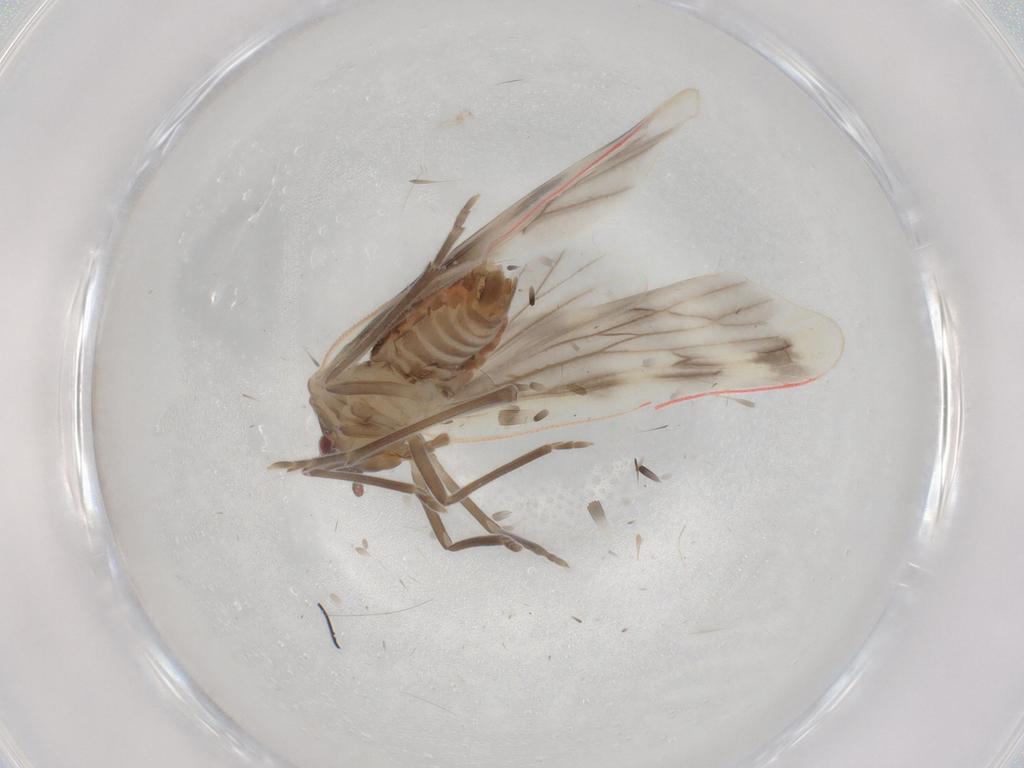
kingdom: Animalia
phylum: Arthropoda
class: Insecta
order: Hemiptera
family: Derbidae
